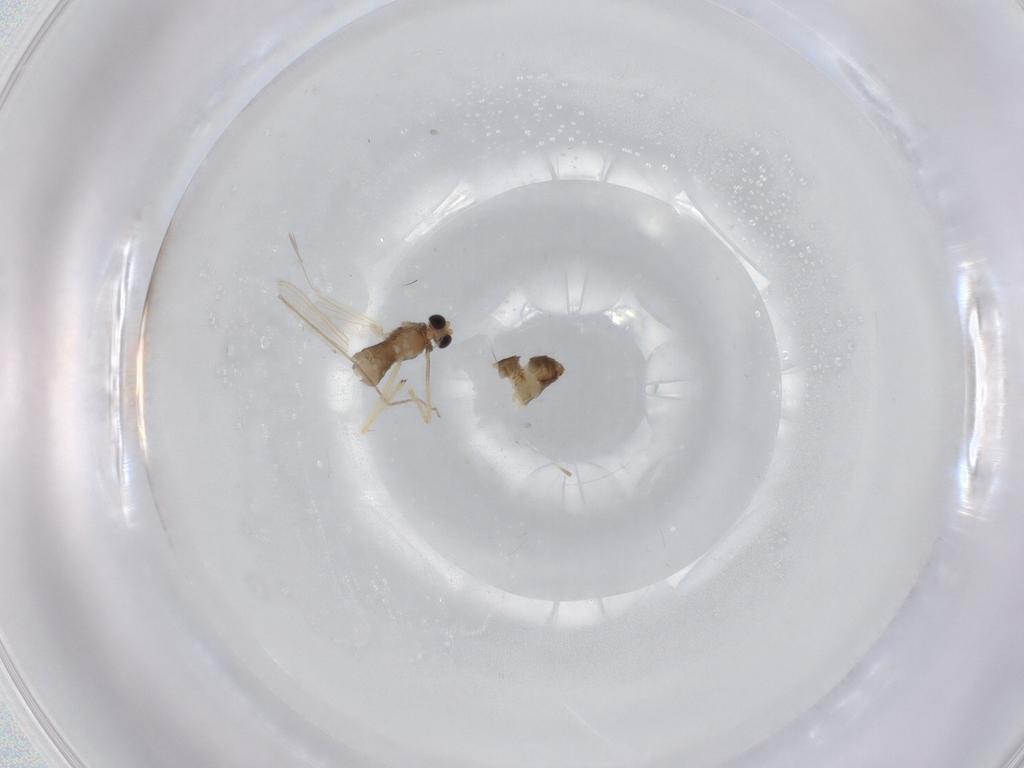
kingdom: Animalia
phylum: Arthropoda
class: Insecta
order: Diptera
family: Chironomidae
